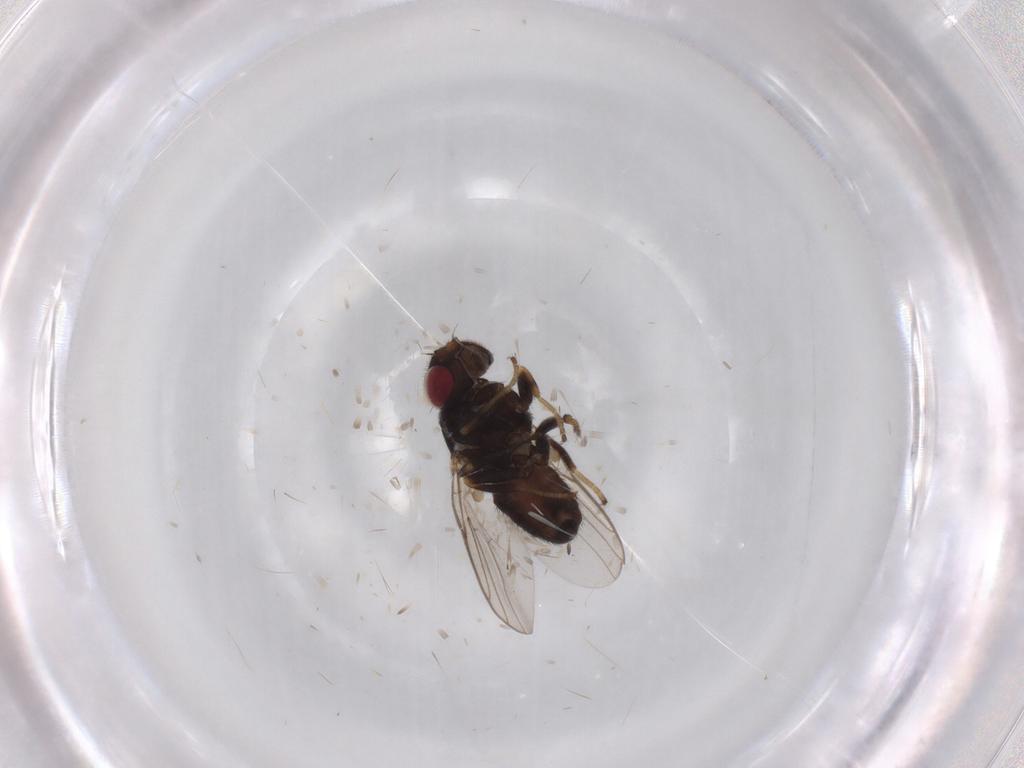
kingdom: Animalia
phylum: Arthropoda
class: Insecta
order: Diptera
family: Chloropidae
